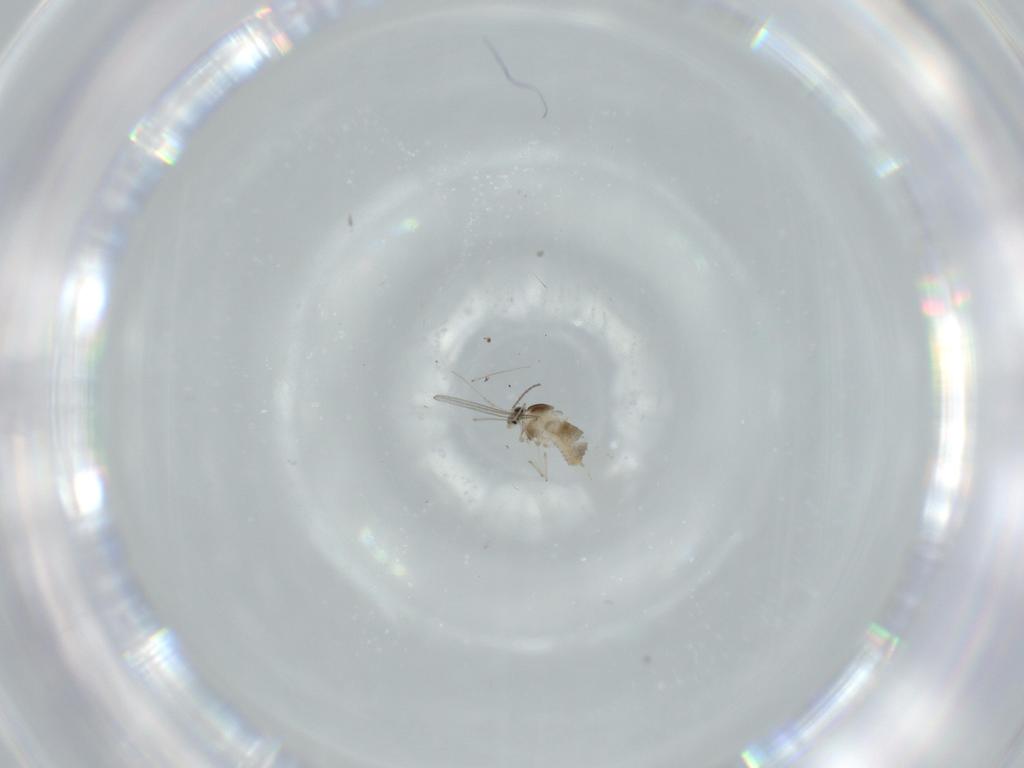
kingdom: Animalia
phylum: Arthropoda
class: Insecta
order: Diptera
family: Cecidomyiidae
